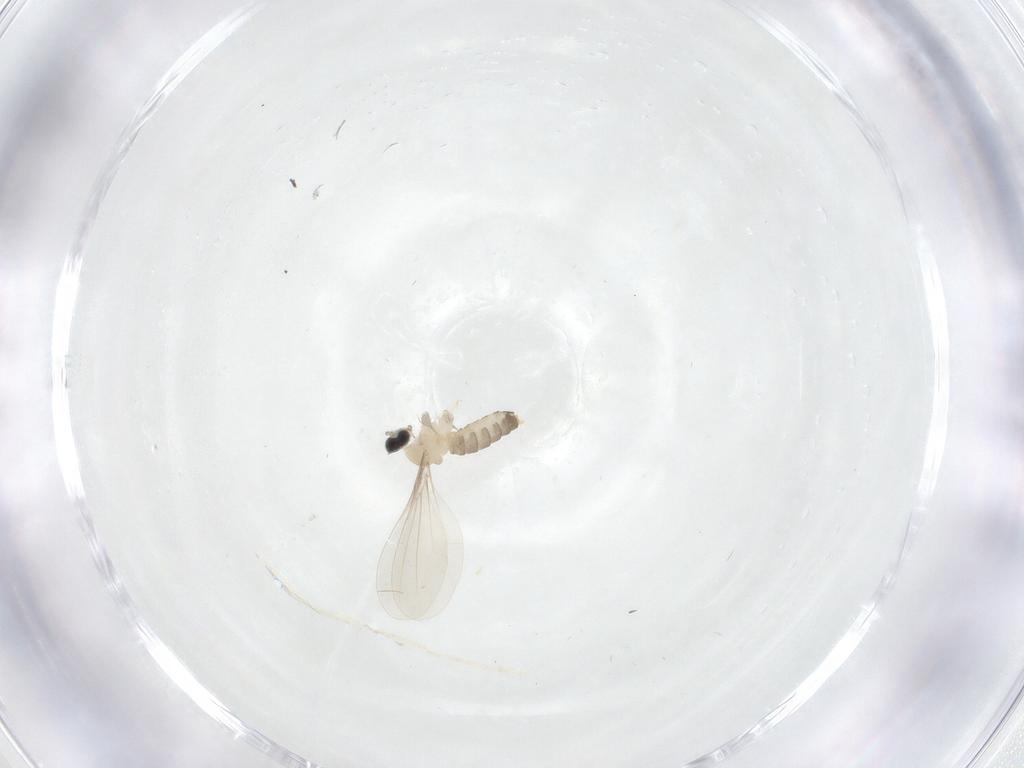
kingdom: Animalia
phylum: Arthropoda
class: Insecta
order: Diptera
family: Cecidomyiidae
